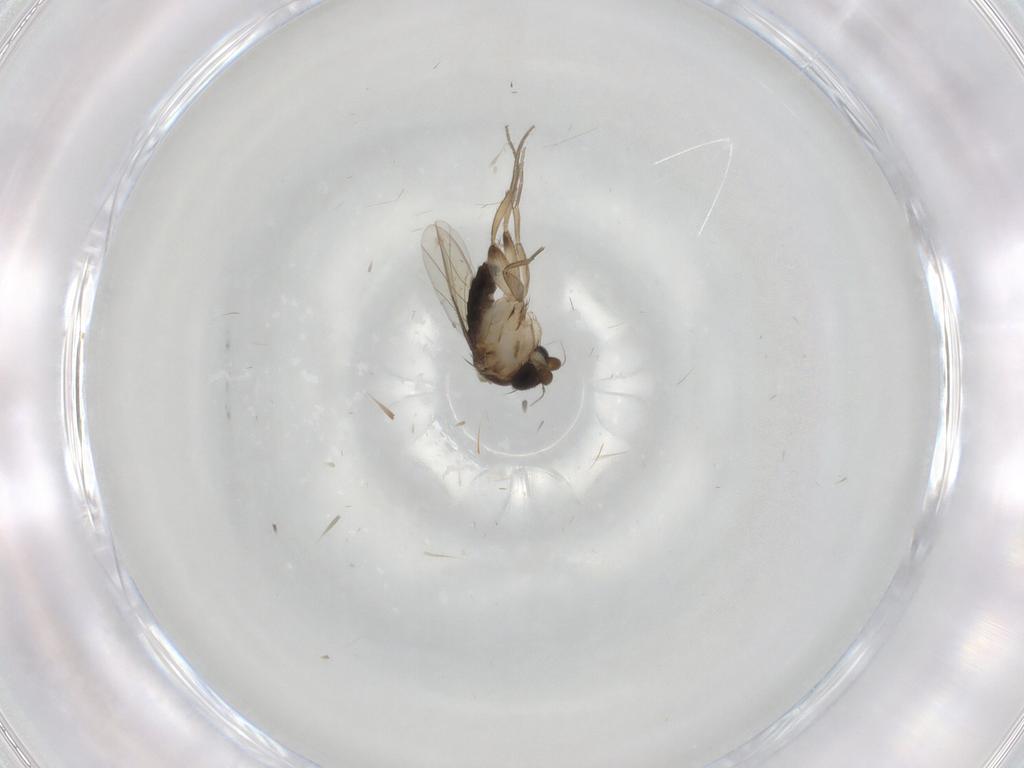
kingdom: Animalia
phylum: Arthropoda
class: Insecta
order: Diptera
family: Phoridae
